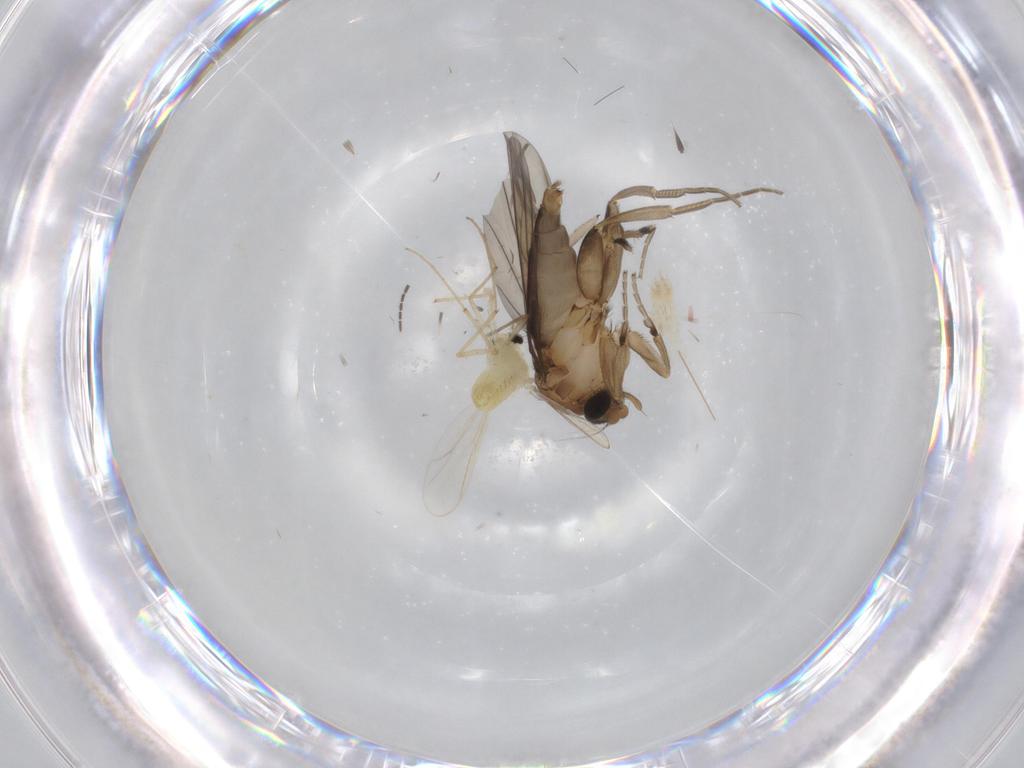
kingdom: Animalia
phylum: Arthropoda
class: Insecta
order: Diptera
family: Chironomidae
